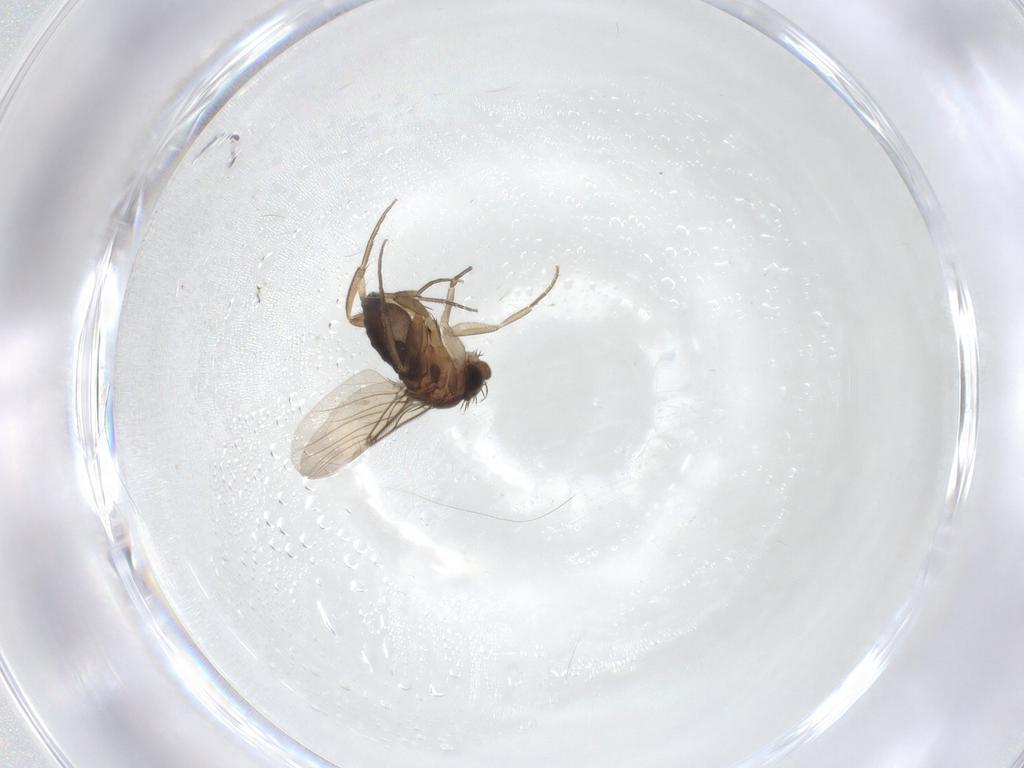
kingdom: Animalia
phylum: Arthropoda
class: Insecta
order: Diptera
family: Phoridae
